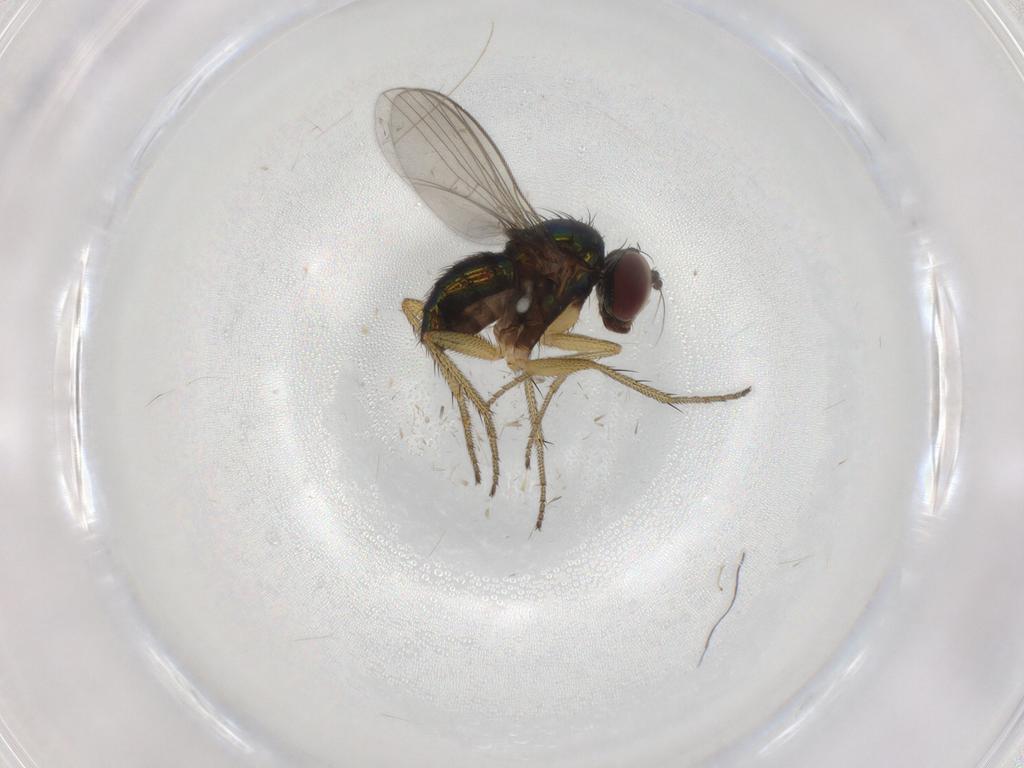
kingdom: Animalia
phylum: Arthropoda
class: Insecta
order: Diptera
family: Dolichopodidae
